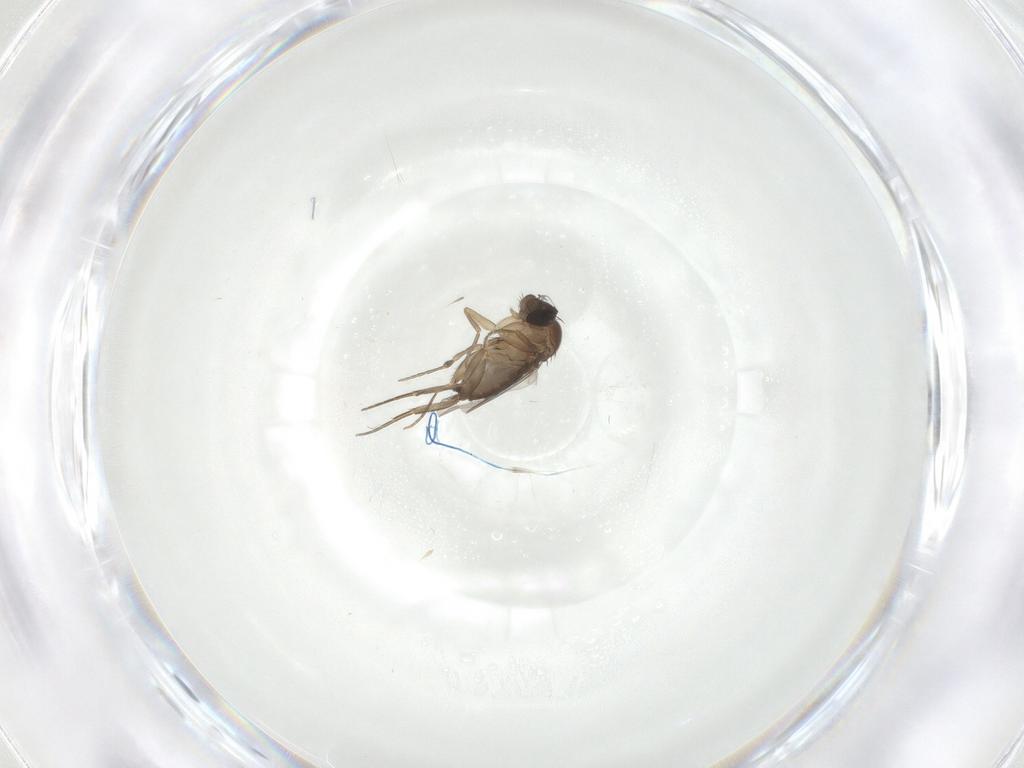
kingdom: Animalia
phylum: Arthropoda
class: Insecta
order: Diptera
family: Phoridae
